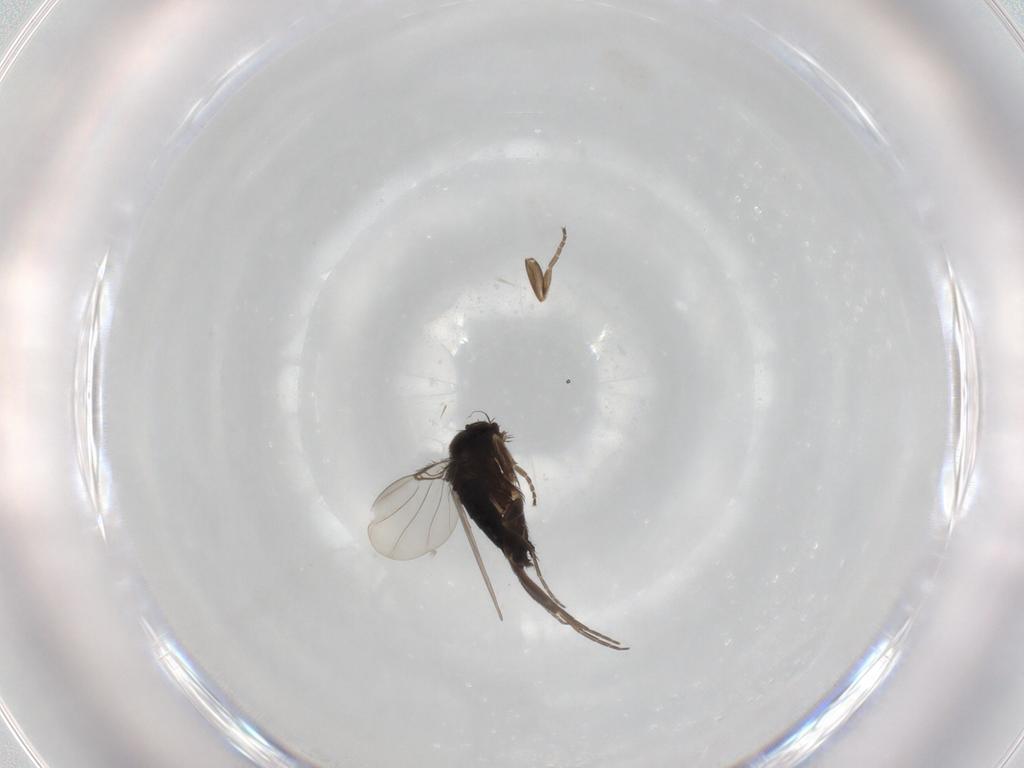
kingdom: Animalia
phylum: Arthropoda
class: Insecta
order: Diptera
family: Phoridae
